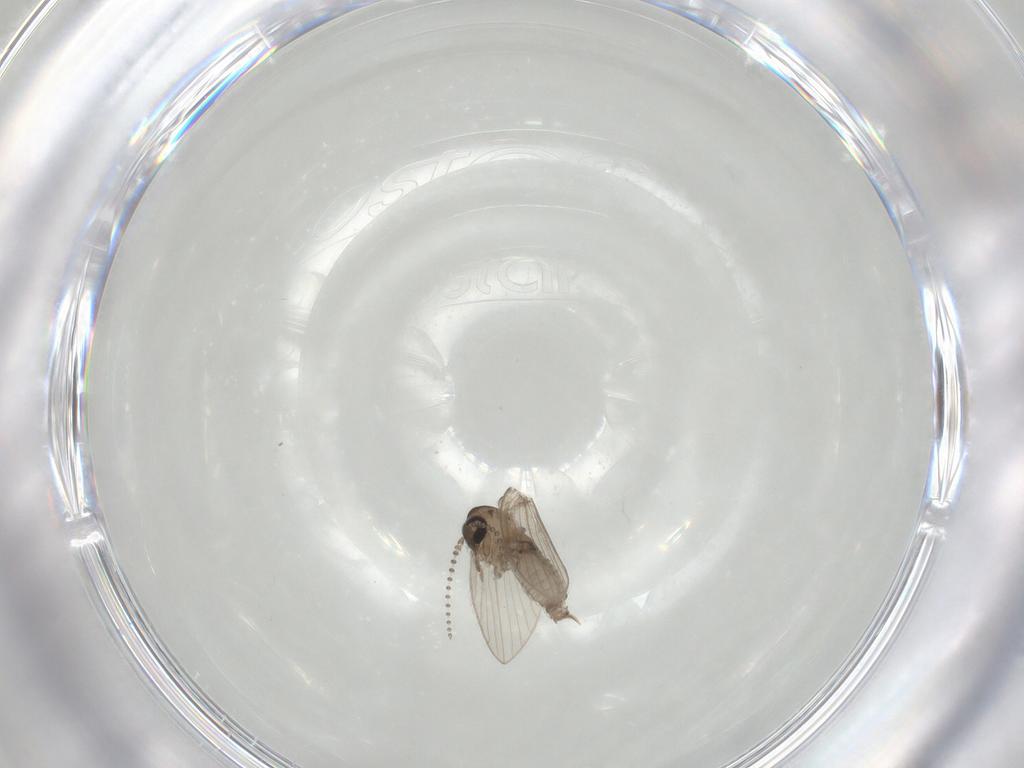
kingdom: Animalia
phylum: Arthropoda
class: Insecta
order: Diptera
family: Psychodidae
